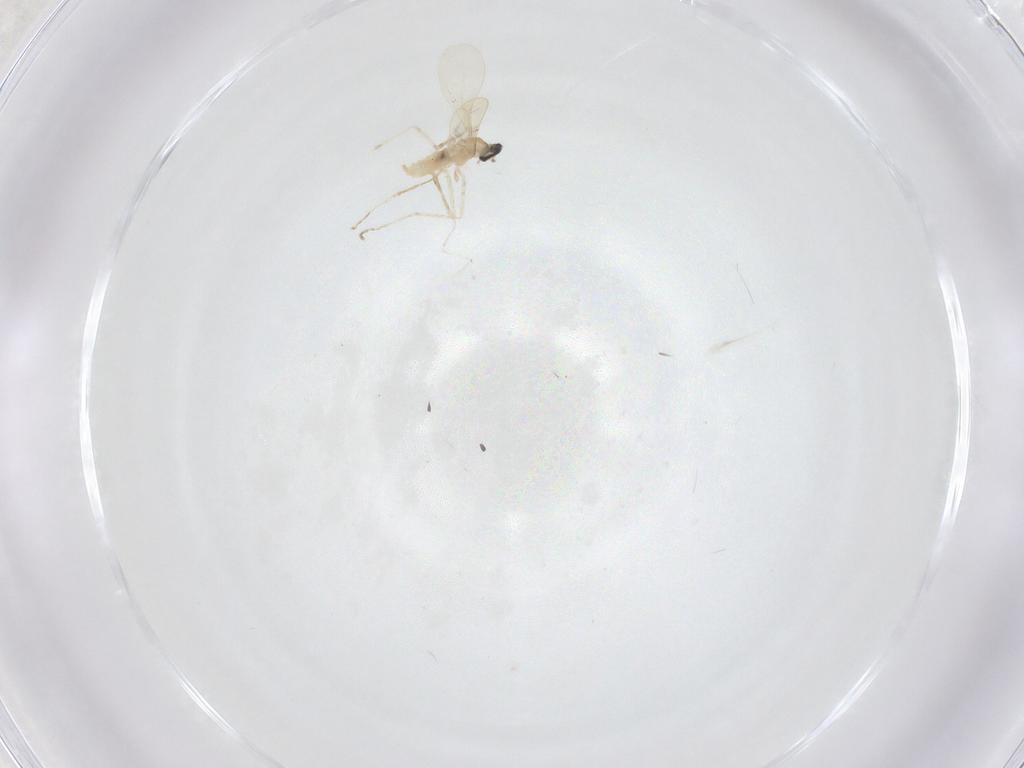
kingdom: Animalia
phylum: Arthropoda
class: Insecta
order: Diptera
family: Cecidomyiidae
